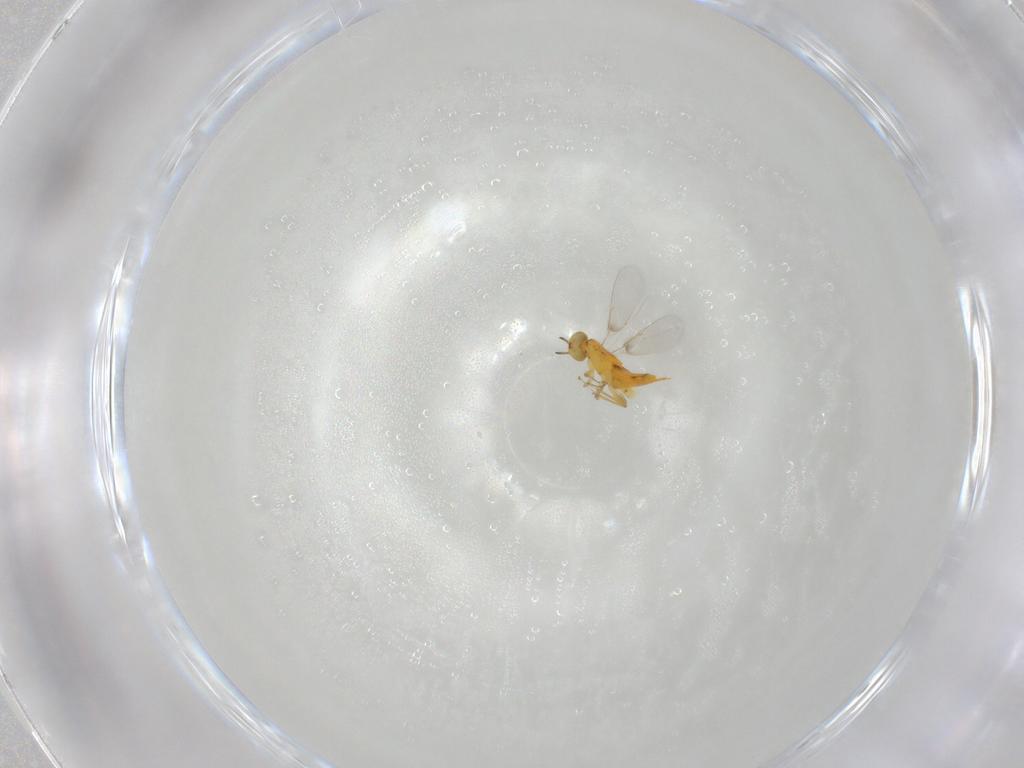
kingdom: Animalia
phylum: Arthropoda
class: Insecta
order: Hymenoptera
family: Aphelinidae
